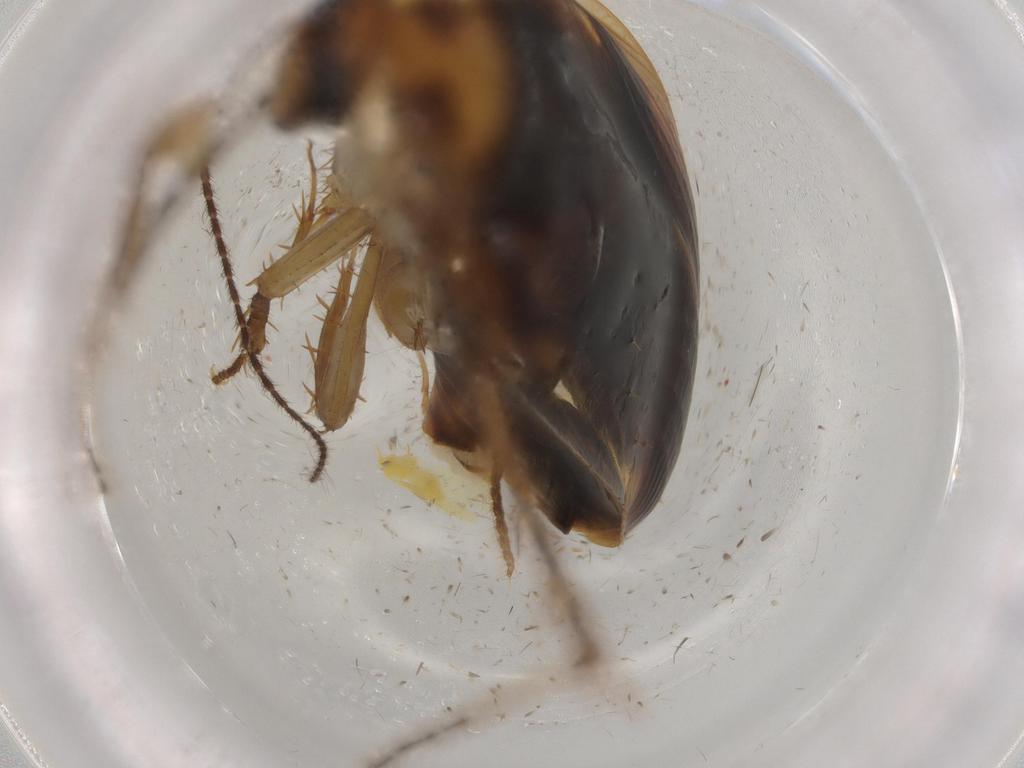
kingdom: Animalia
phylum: Arthropoda
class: Insecta
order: Blattodea
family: Ectobiidae
